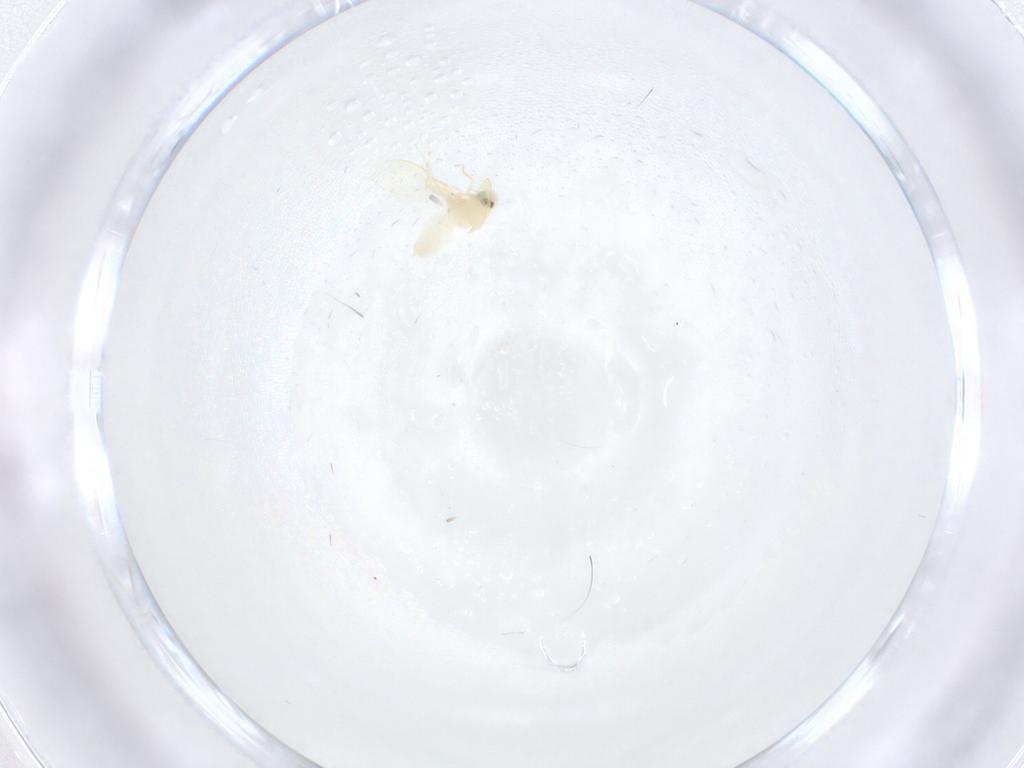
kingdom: Animalia
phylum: Arthropoda
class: Insecta
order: Hemiptera
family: Aleyrodidae
